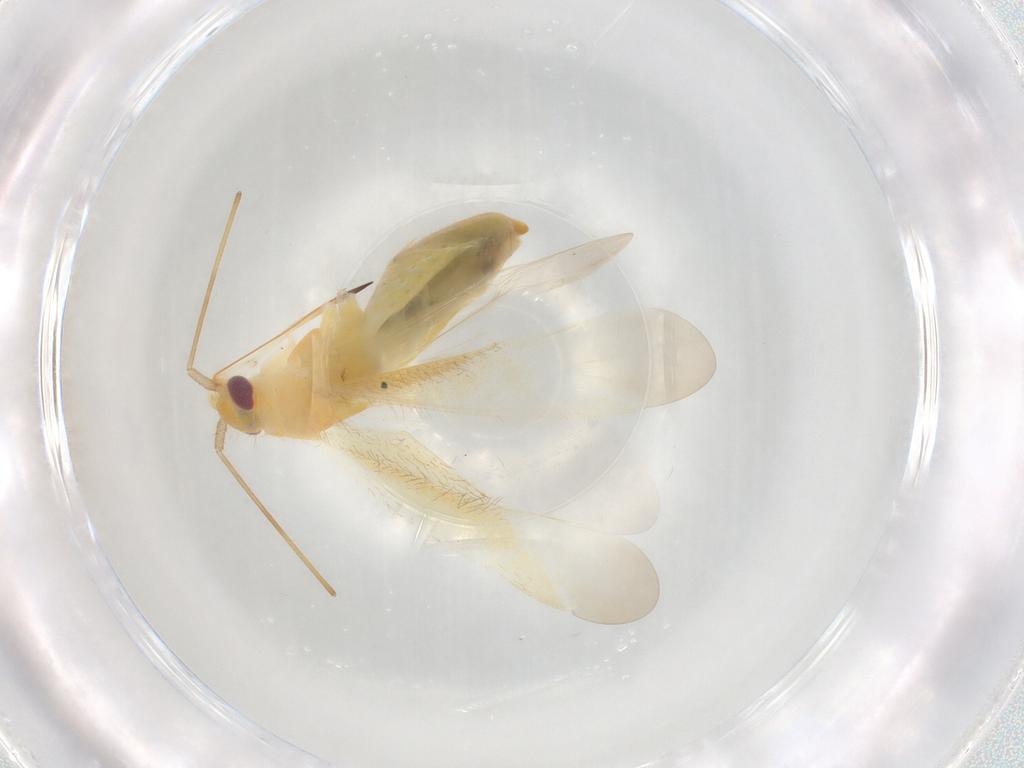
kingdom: Animalia
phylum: Arthropoda
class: Insecta
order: Hemiptera
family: Miridae
